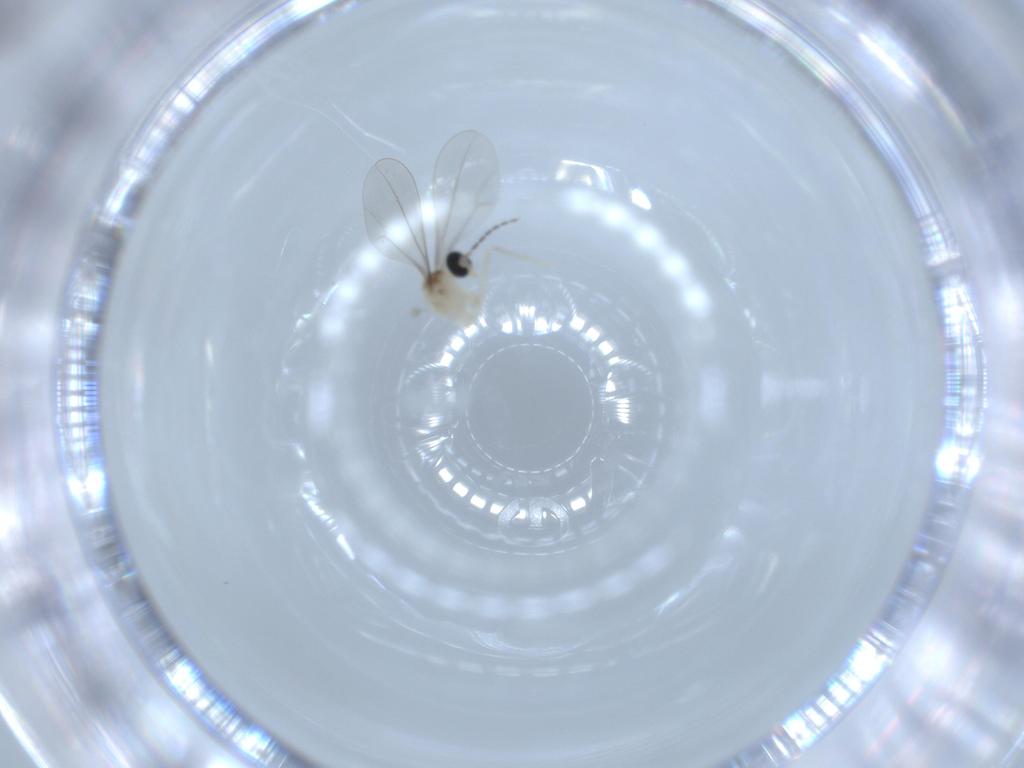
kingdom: Animalia
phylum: Arthropoda
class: Insecta
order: Diptera
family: Cecidomyiidae
